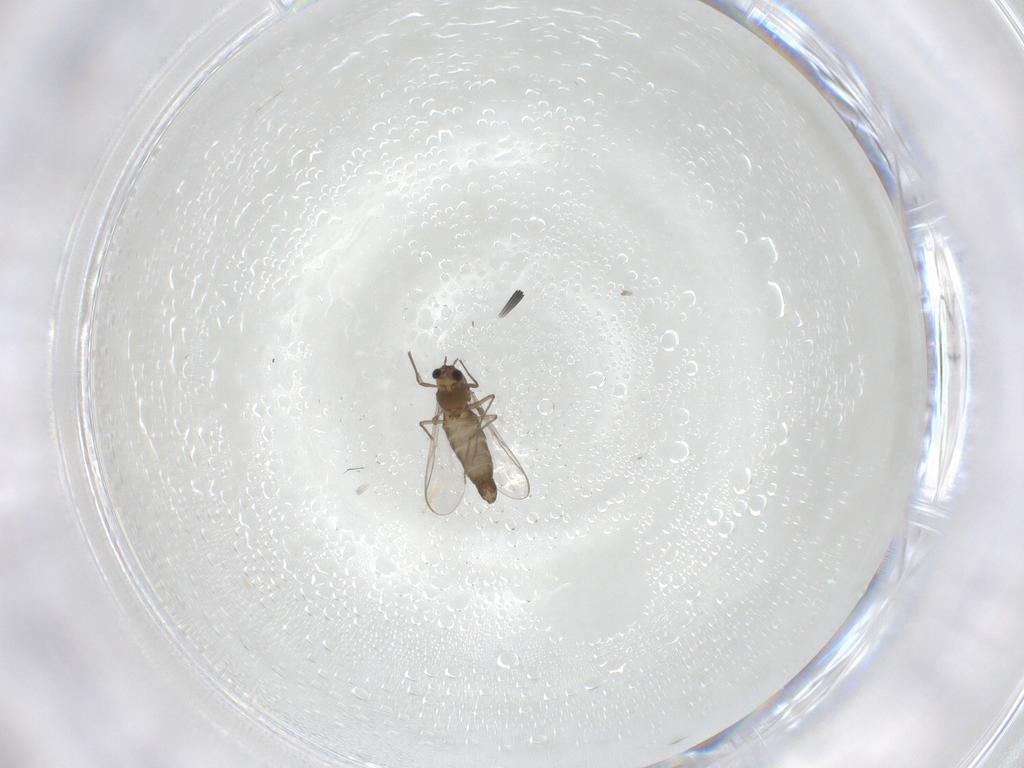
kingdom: Animalia
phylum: Arthropoda
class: Insecta
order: Diptera
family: Chironomidae
